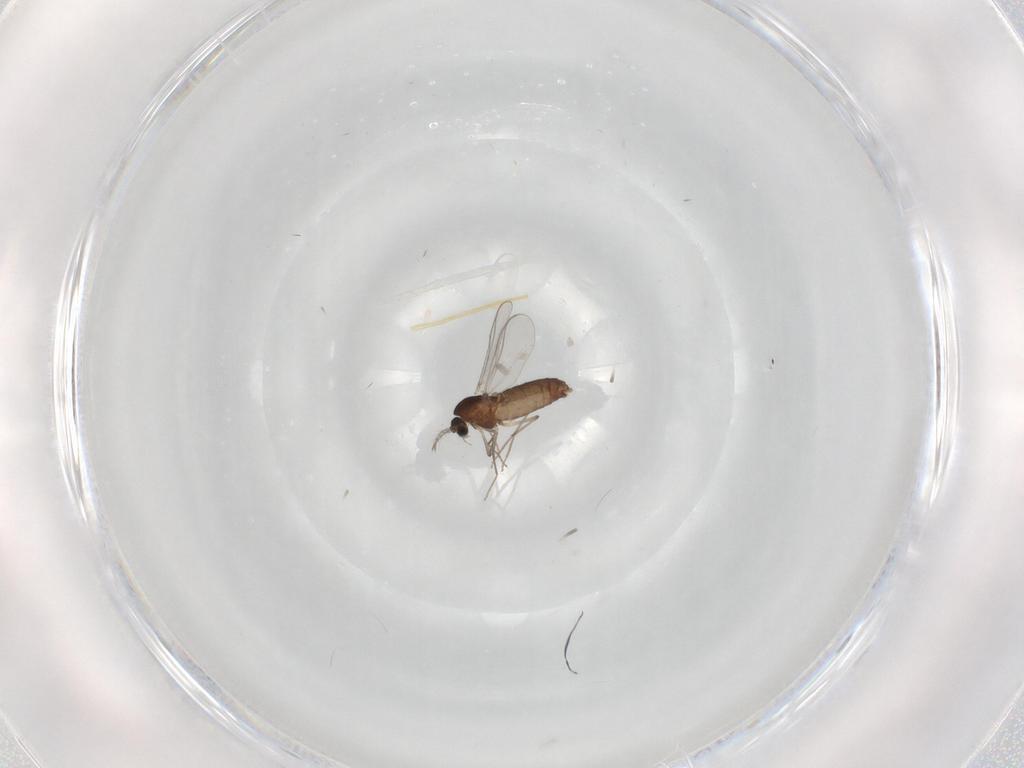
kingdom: Animalia
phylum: Arthropoda
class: Insecta
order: Diptera
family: Chironomidae
